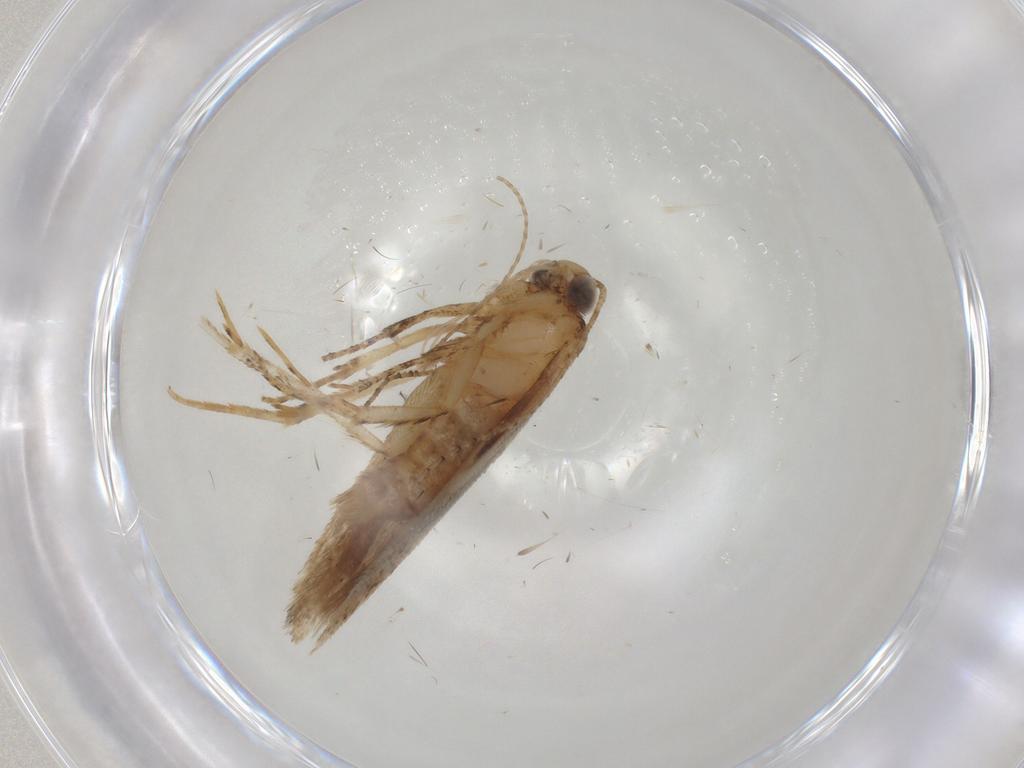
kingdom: Animalia
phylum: Arthropoda
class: Insecta
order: Lepidoptera
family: Gelechiidae
